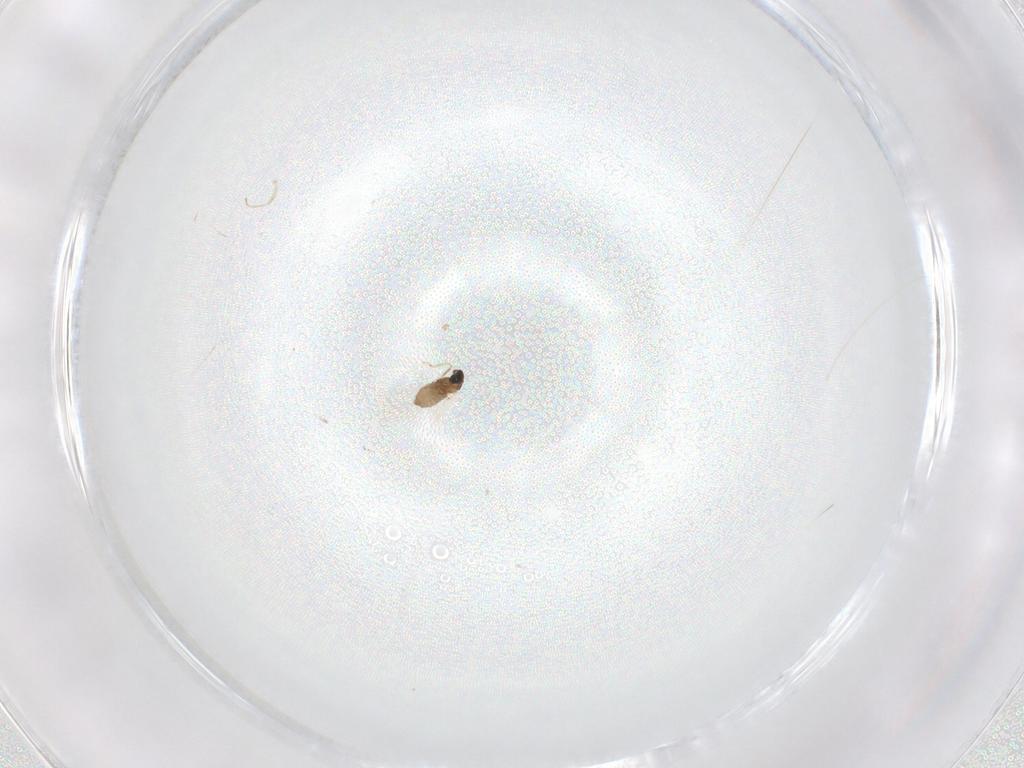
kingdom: Animalia
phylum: Arthropoda
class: Insecta
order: Diptera
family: Cecidomyiidae
